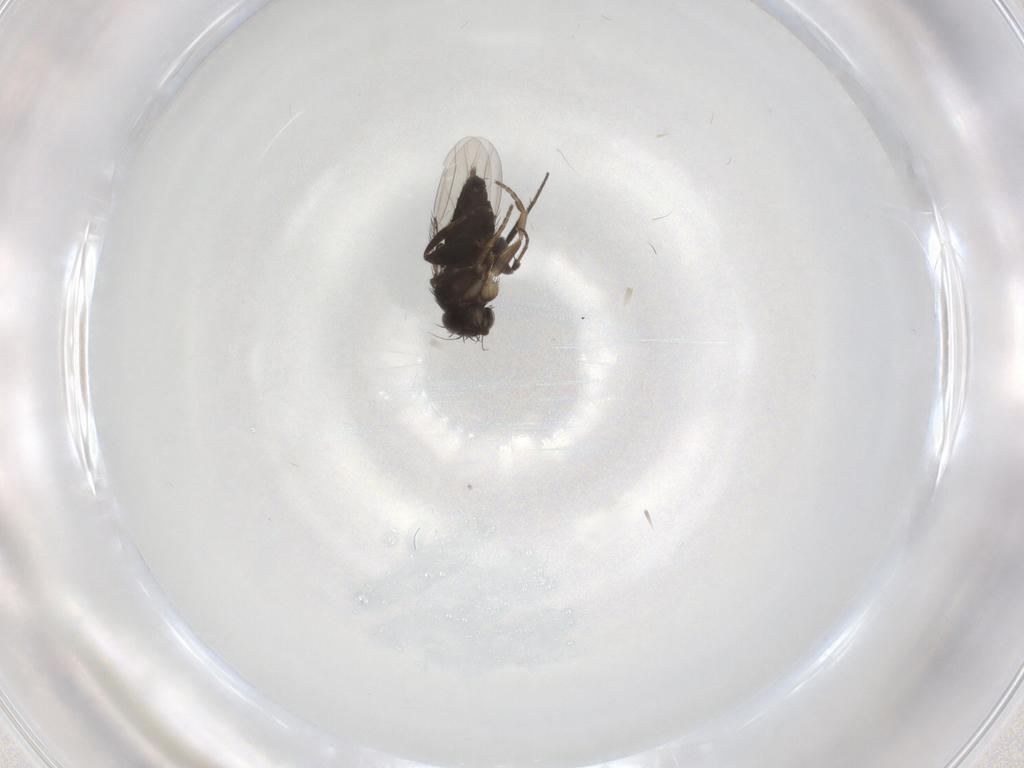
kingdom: Animalia
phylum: Arthropoda
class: Insecta
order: Diptera
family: Phoridae
